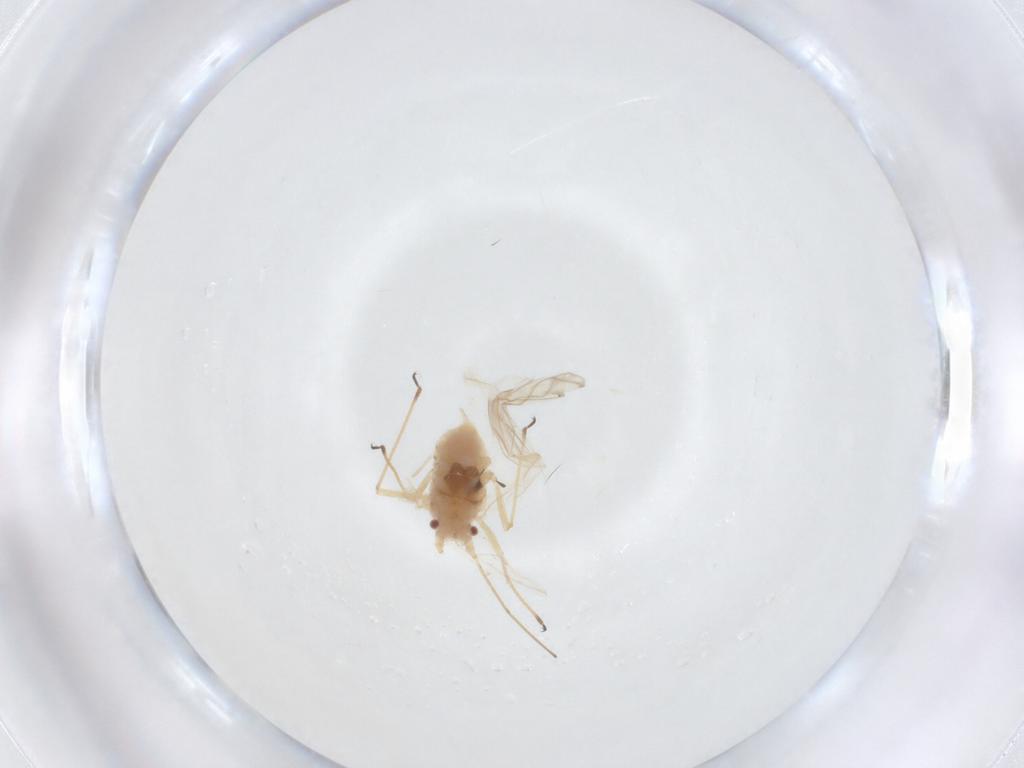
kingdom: Animalia
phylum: Arthropoda
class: Insecta
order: Hemiptera
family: Aphididae
